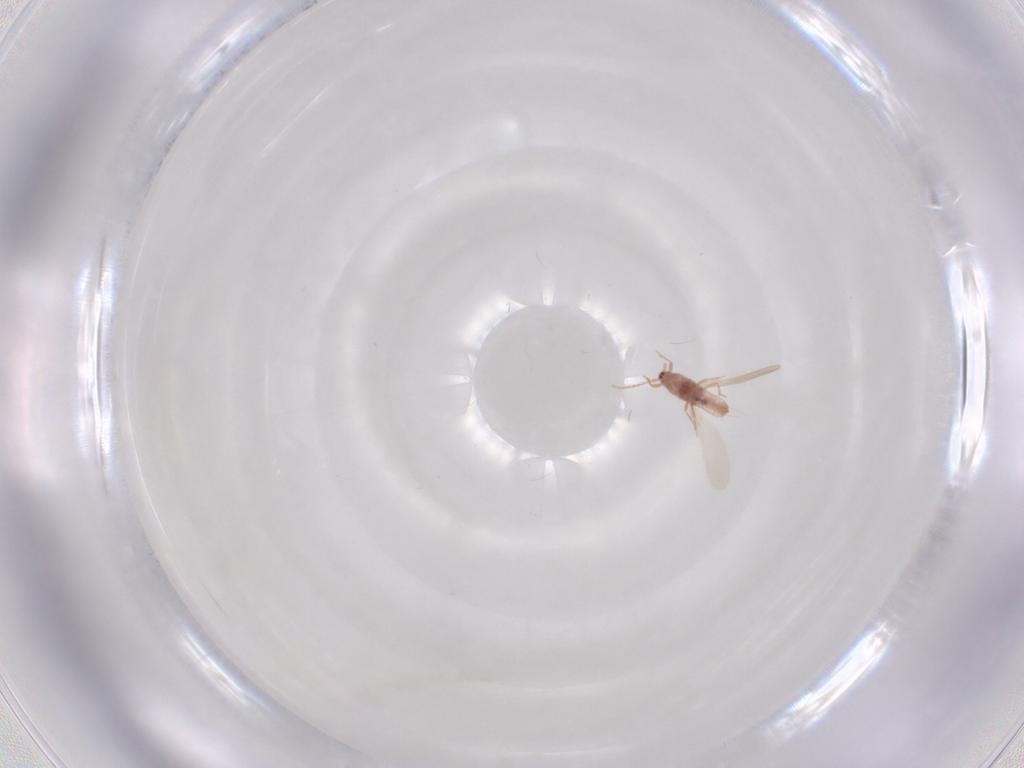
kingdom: Animalia
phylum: Arthropoda
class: Insecta
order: Hemiptera
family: Pseudococcidae
